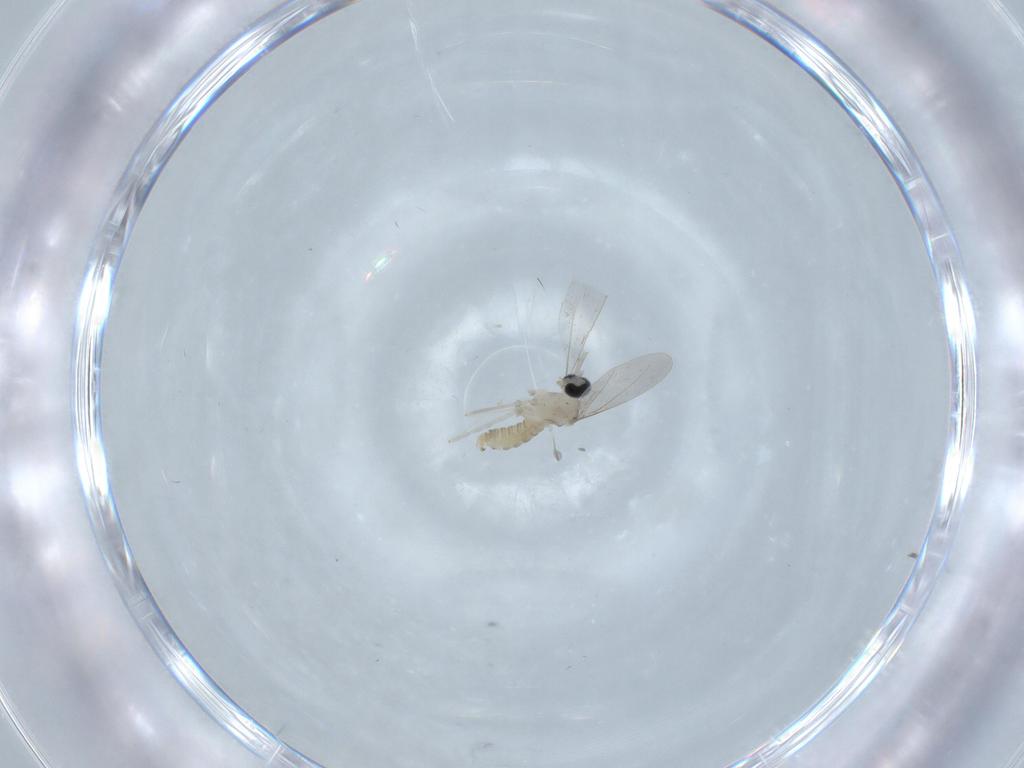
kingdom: Animalia
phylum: Arthropoda
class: Insecta
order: Diptera
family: Cecidomyiidae
